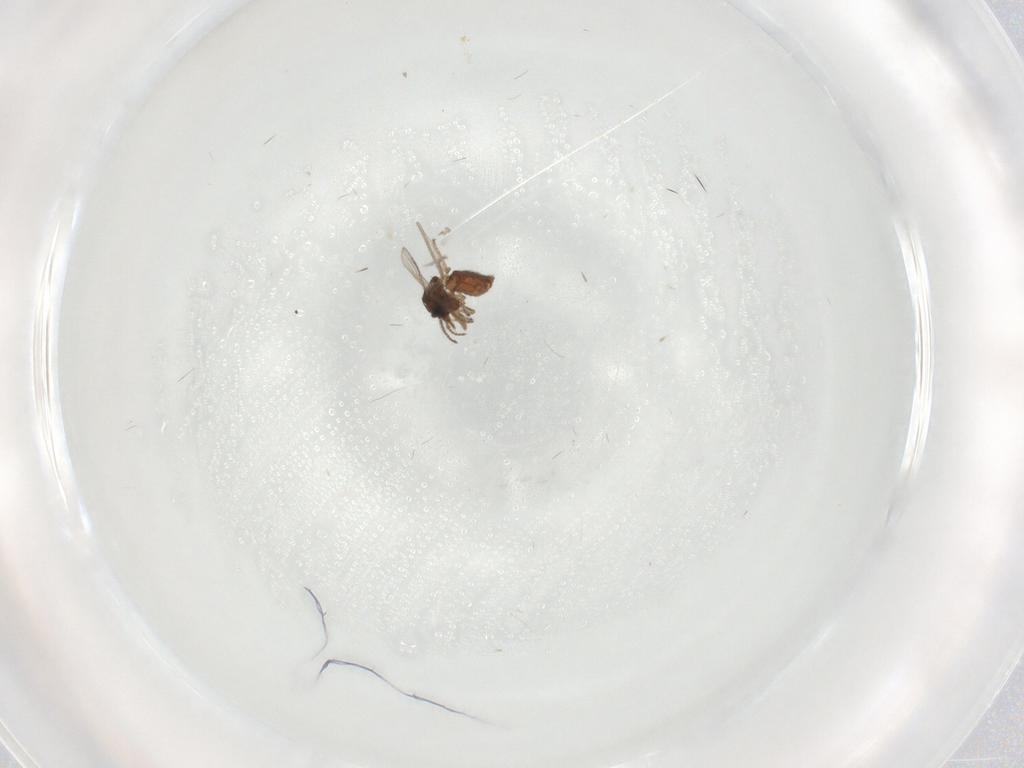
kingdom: Animalia
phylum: Arthropoda
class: Insecta
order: Diptera
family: Ceratopogonidae
